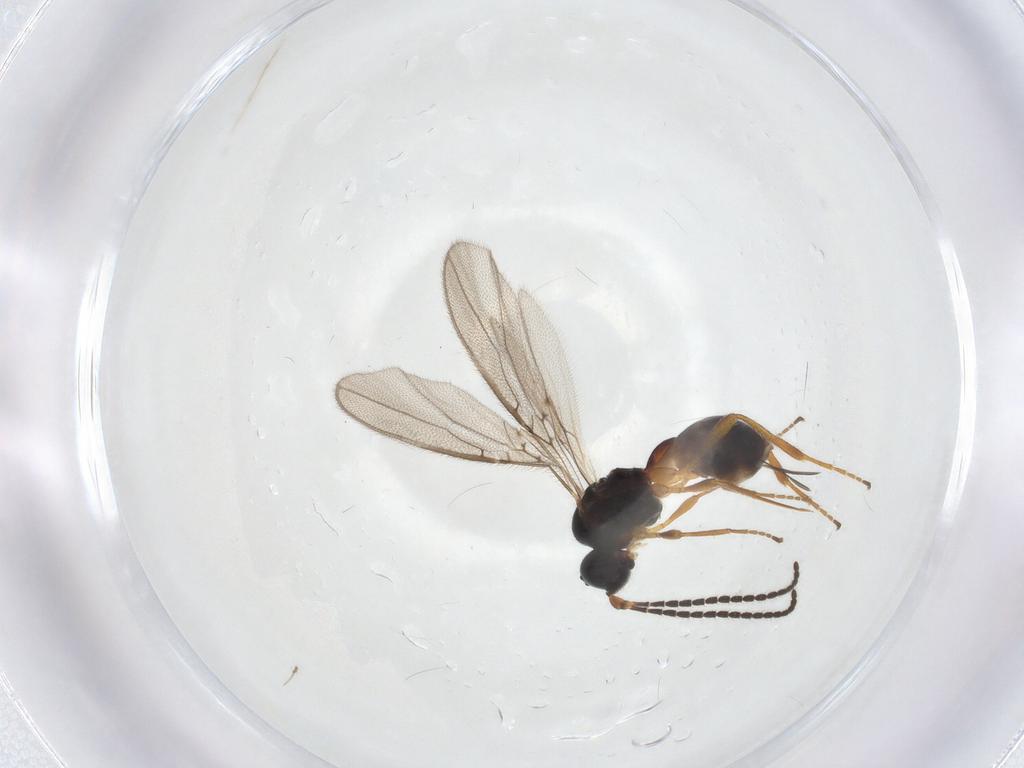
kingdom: Animalia
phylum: Arthropoda
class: Insecta
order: Hymenoptera
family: Braconidae
